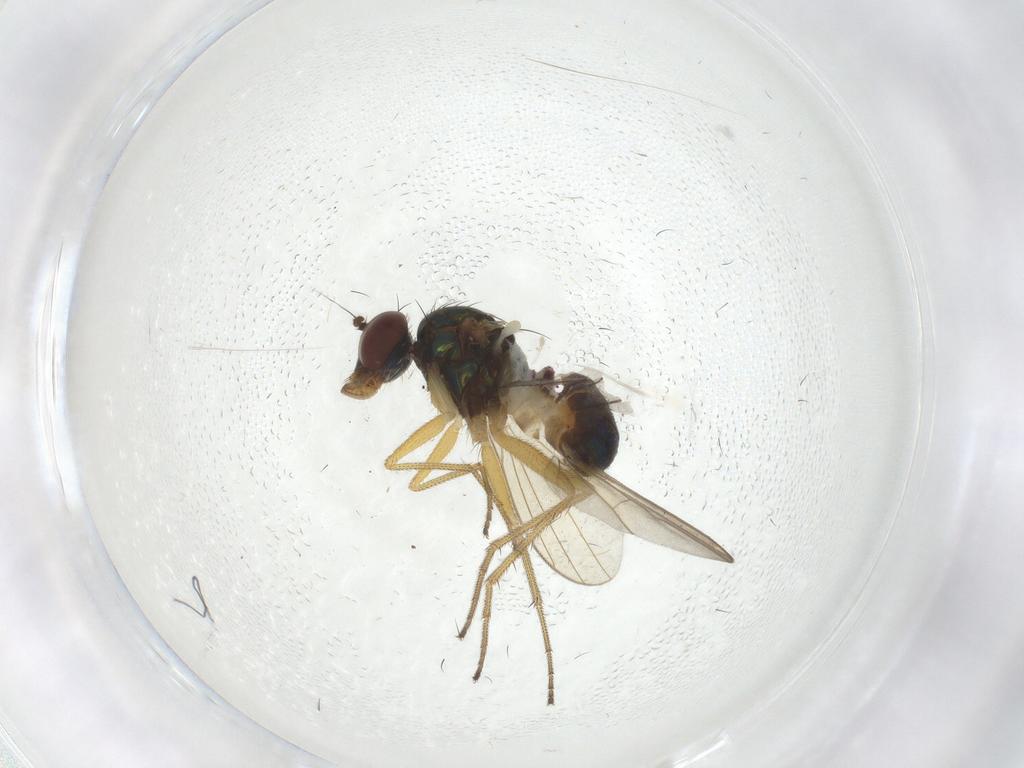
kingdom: Animalia
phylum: Arthropoda
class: Insecta
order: Diptera
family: Dolichopodidae
